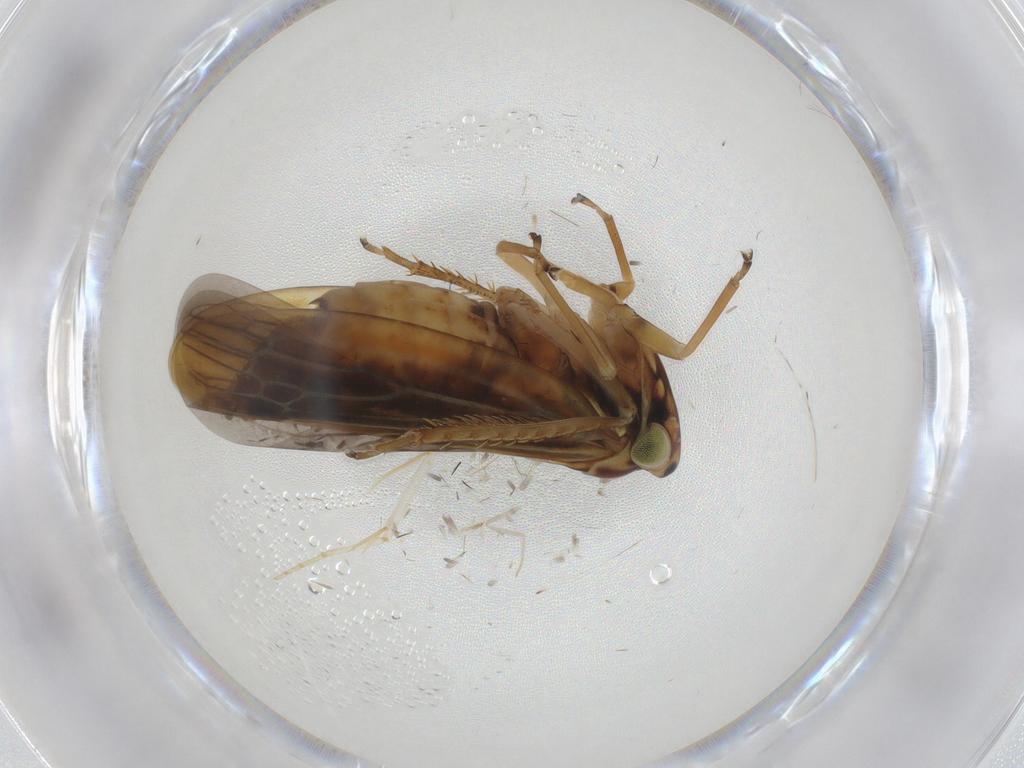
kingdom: Animalia
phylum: Arthropoda
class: Insecta
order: Hemiptera
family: Cicadellidae
